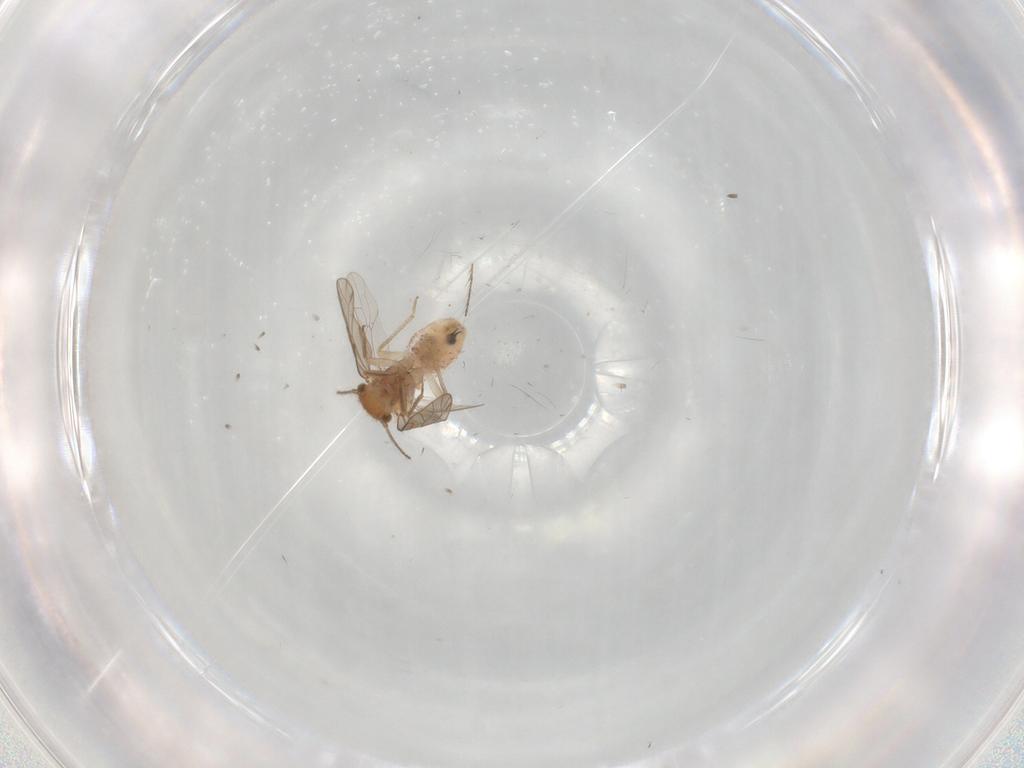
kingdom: Animalia
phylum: Arthropoda
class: Insecta
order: Psocodea
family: Ectopsocidae
